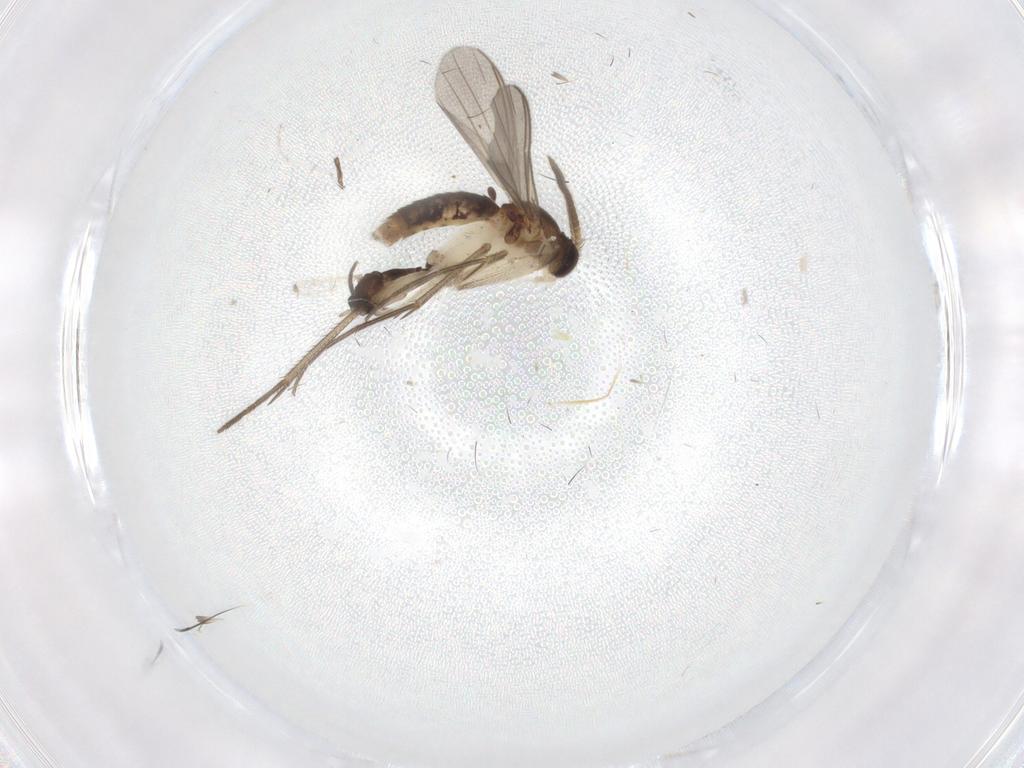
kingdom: Animalia
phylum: Arthropoda
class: Insecta
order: Diptera
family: Mycetophilidae
